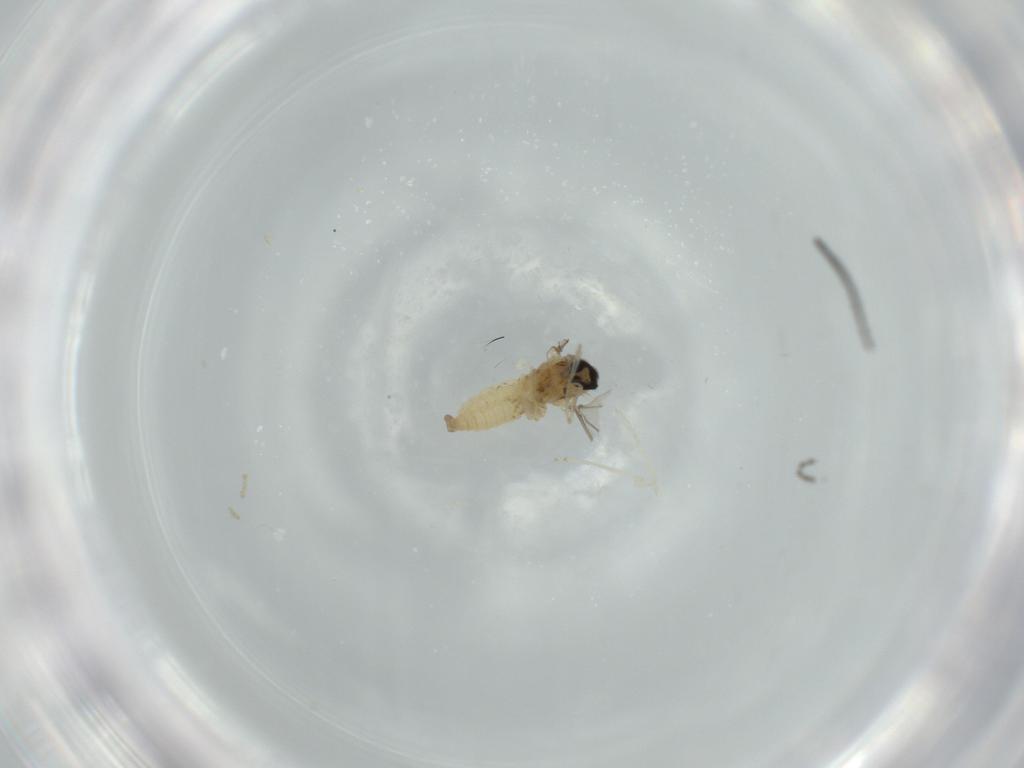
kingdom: Animalia
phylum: Arthropoda
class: Insecta
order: Diptera
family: Cecidomyiidae
